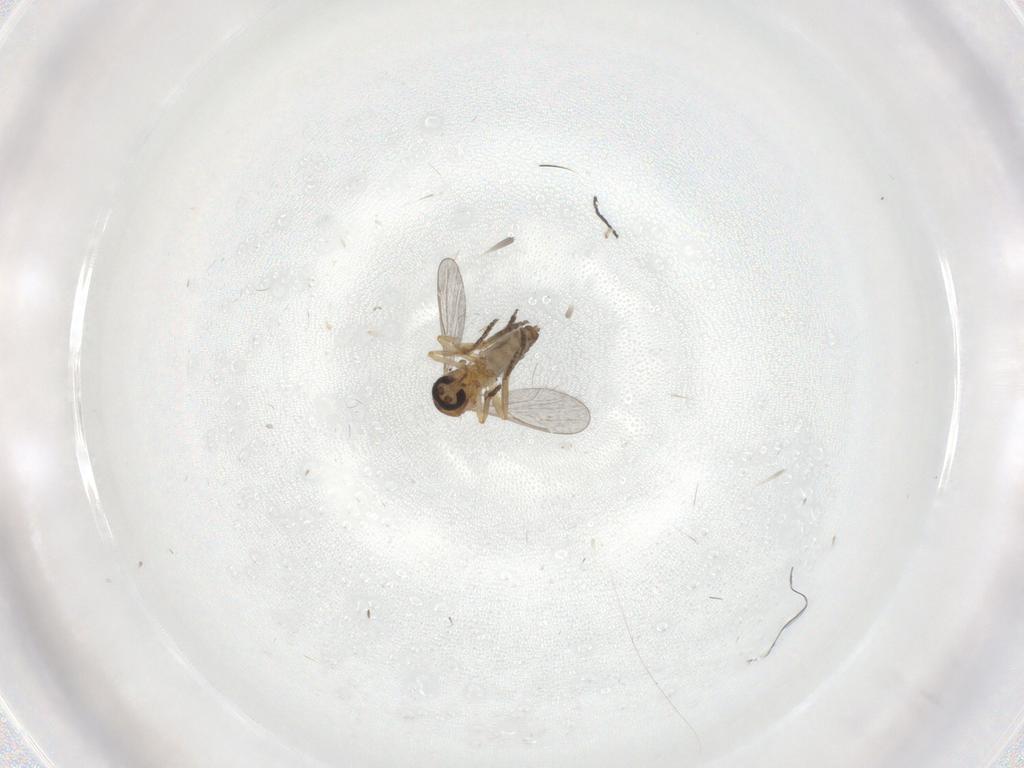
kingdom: Animalia
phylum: Arthropoda
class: Insecta
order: Diptera
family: Ceratopogonidae
